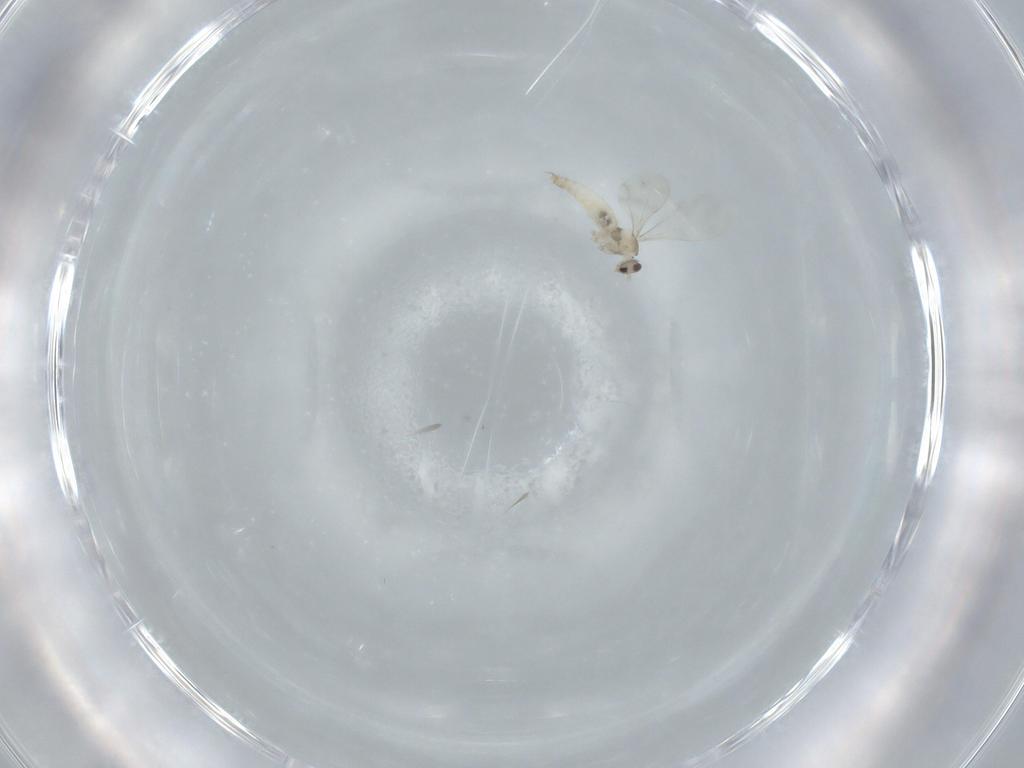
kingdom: Animalia
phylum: Arthropoda
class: Insecta
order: Diptera
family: Cecidomyiidae
